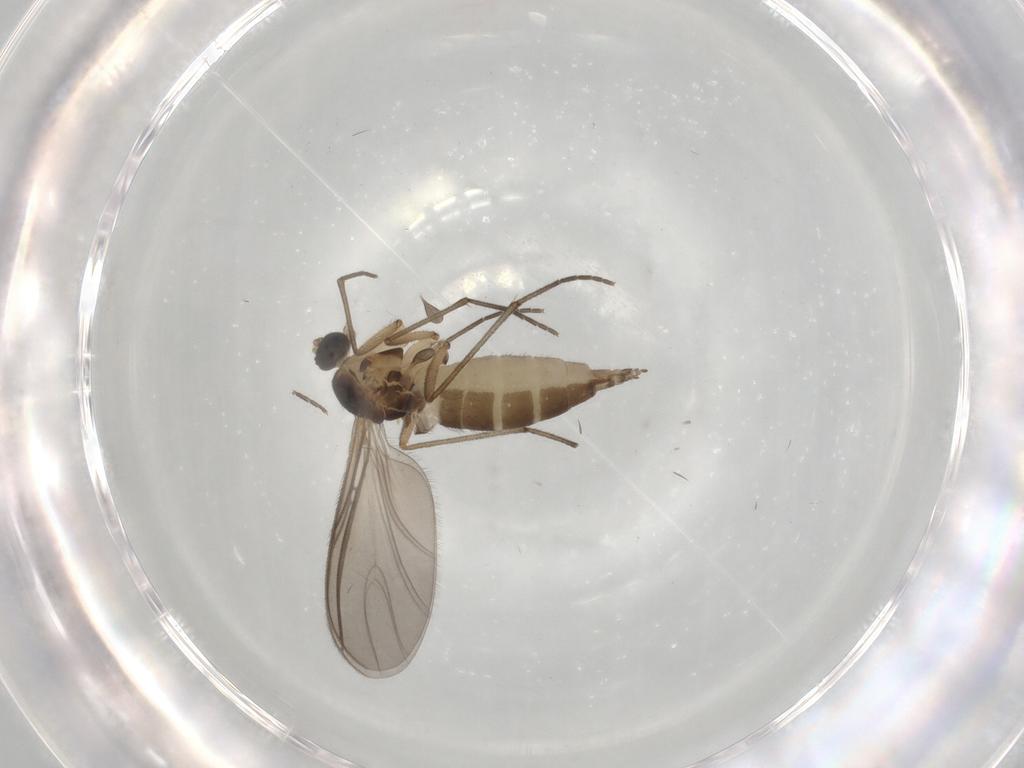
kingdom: Animalia
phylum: Arthropoda
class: Insecta
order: Diptera
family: Sciaridae
